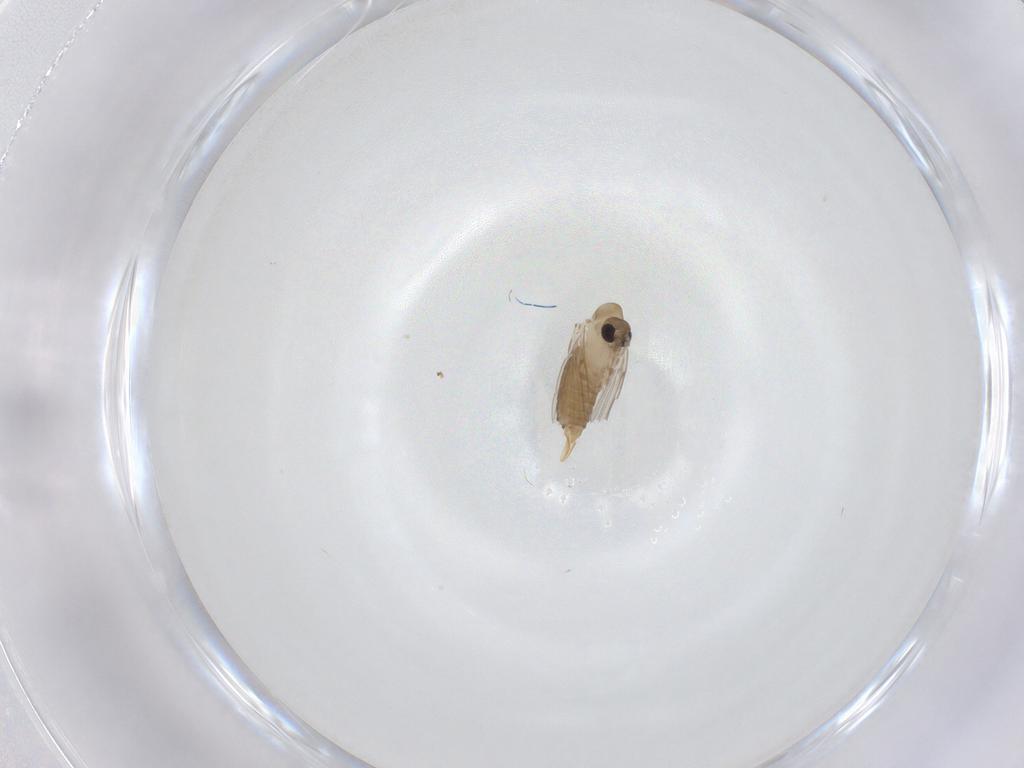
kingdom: Animalia
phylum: Arthropoda
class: Insecta
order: Diptera
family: Psychodidae
